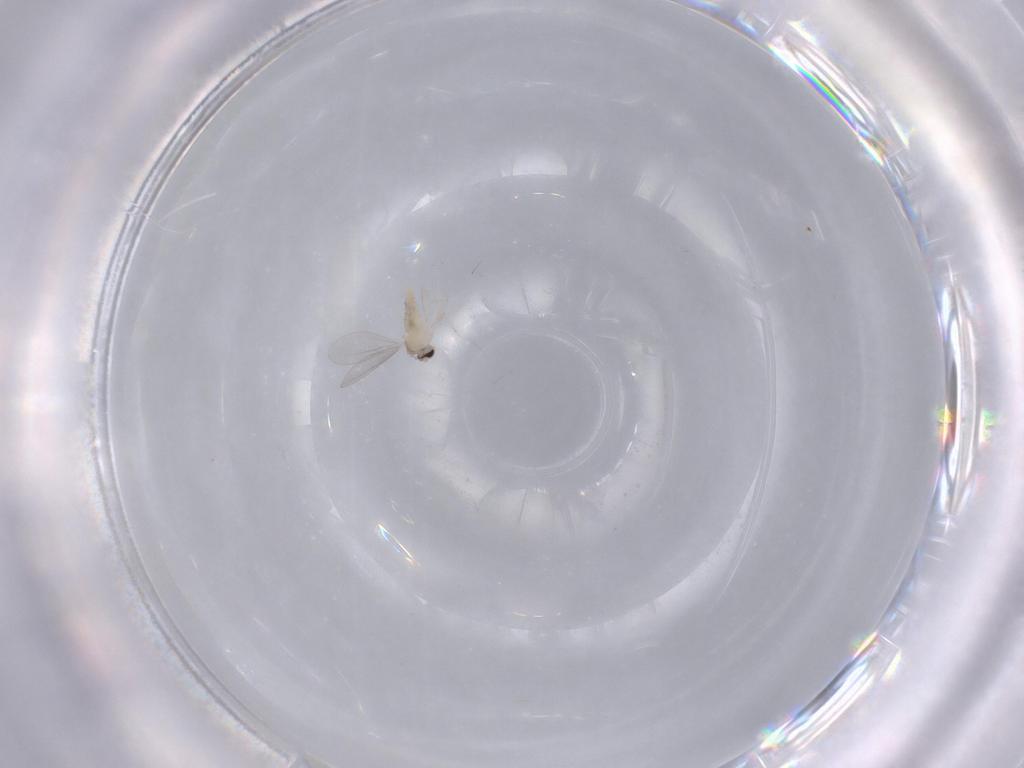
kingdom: Animalia
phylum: Arthropoda
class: Insecta
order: Diptera
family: Cecidomyiidae
